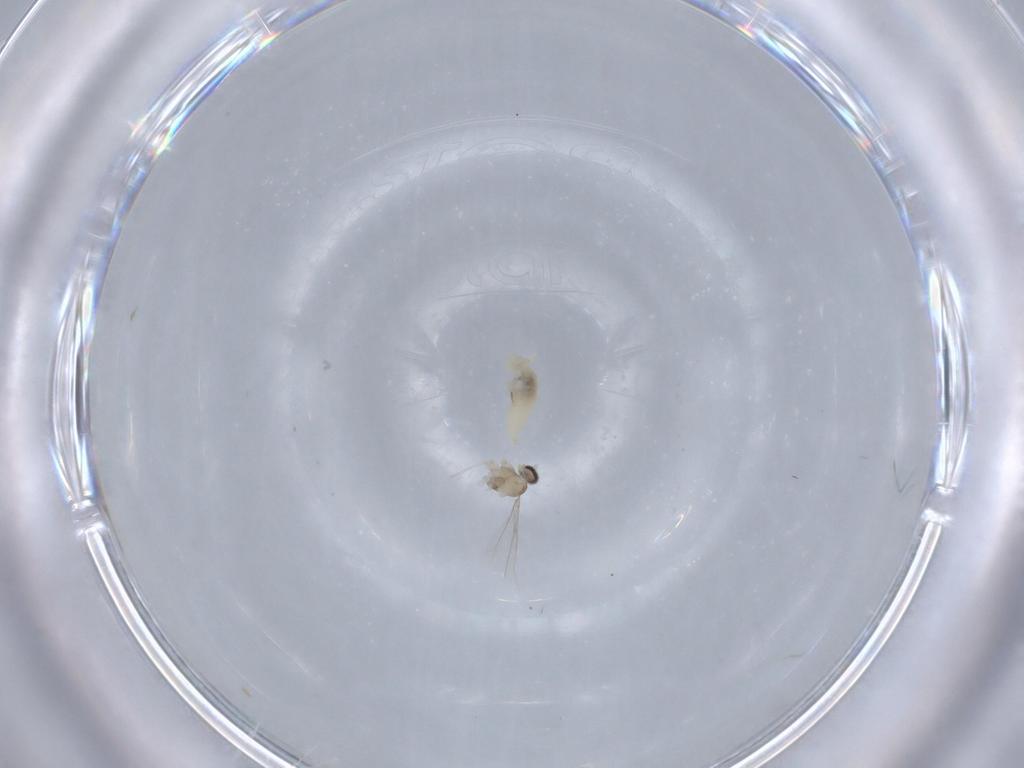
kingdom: Animalia
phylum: Arthropoda
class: Insecta
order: Diptera
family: Cecidomyiidae
